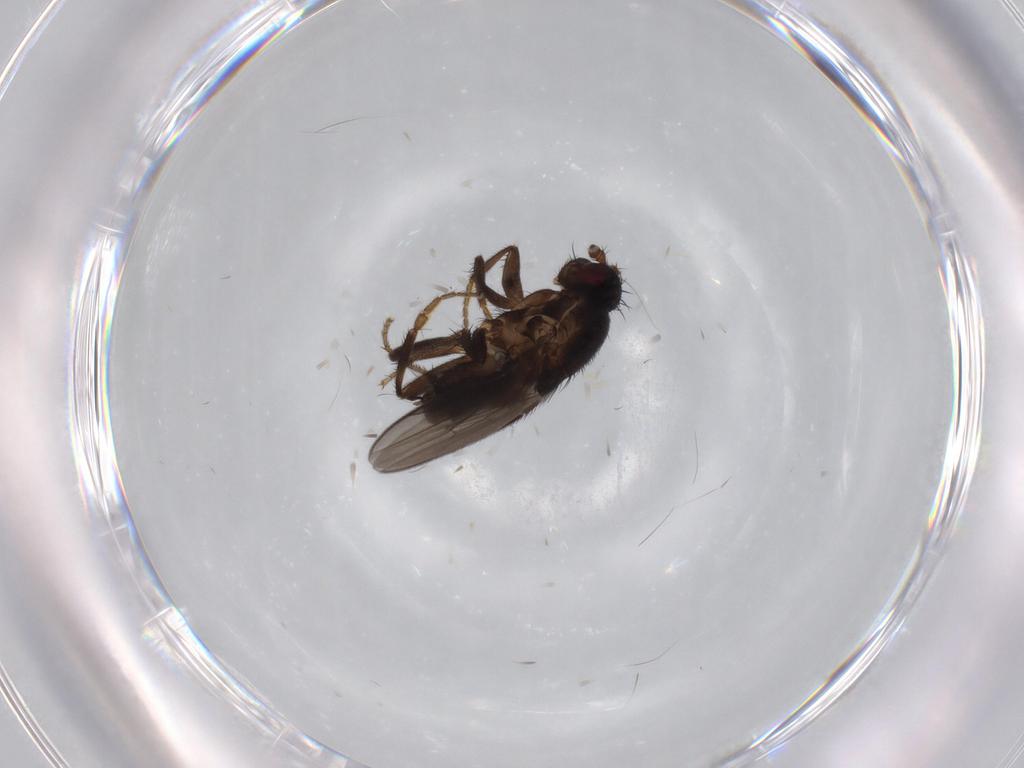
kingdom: Animalia
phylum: Arthropoda
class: Insecta
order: Diptera
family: Sphaeroceridae
